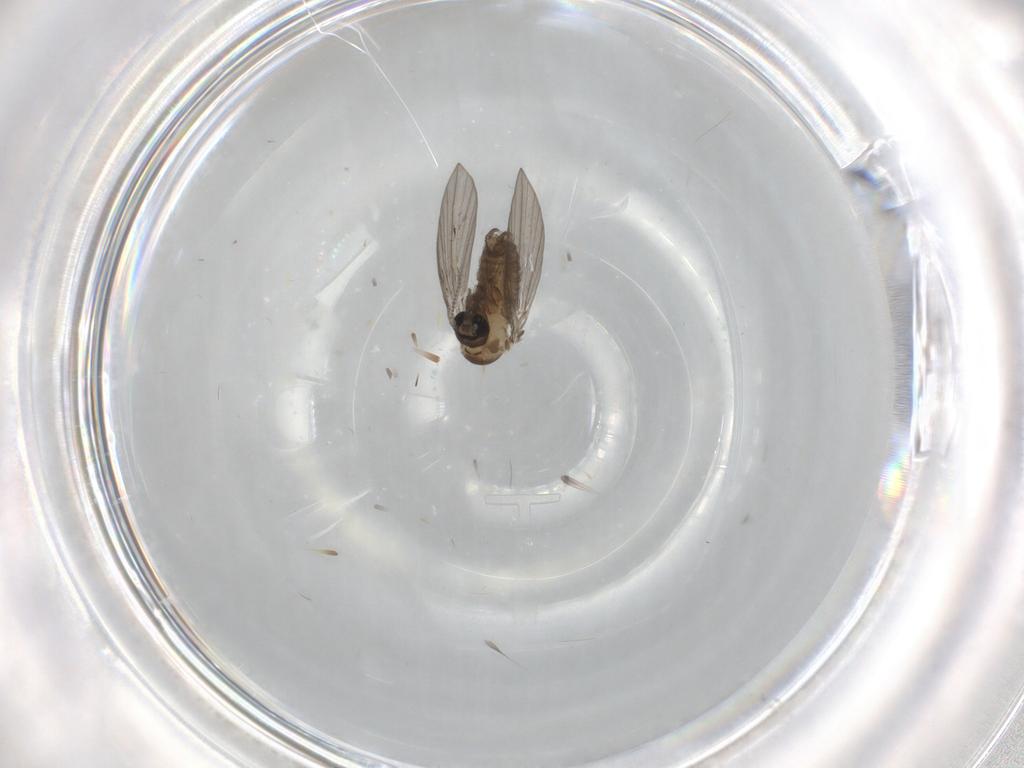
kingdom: Animalia
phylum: Arthropoda
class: Insecta
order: Diptera
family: Psychodidae
